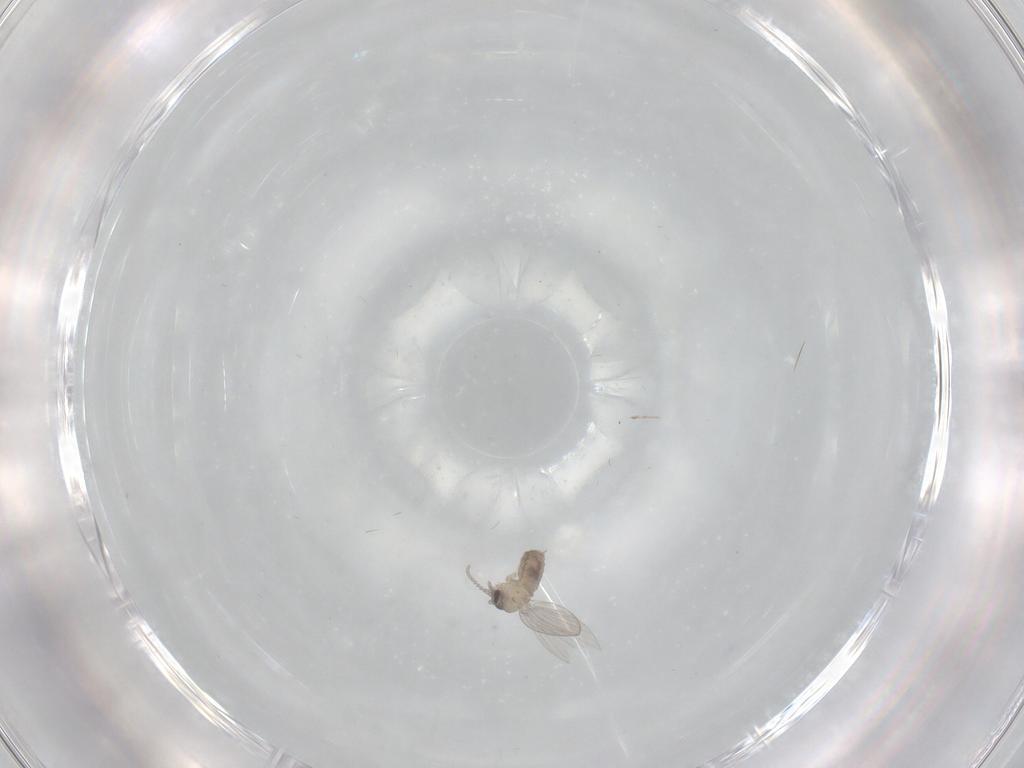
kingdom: Animalia
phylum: Arthropoda
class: Insecta
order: Diptera
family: Psychodidae
